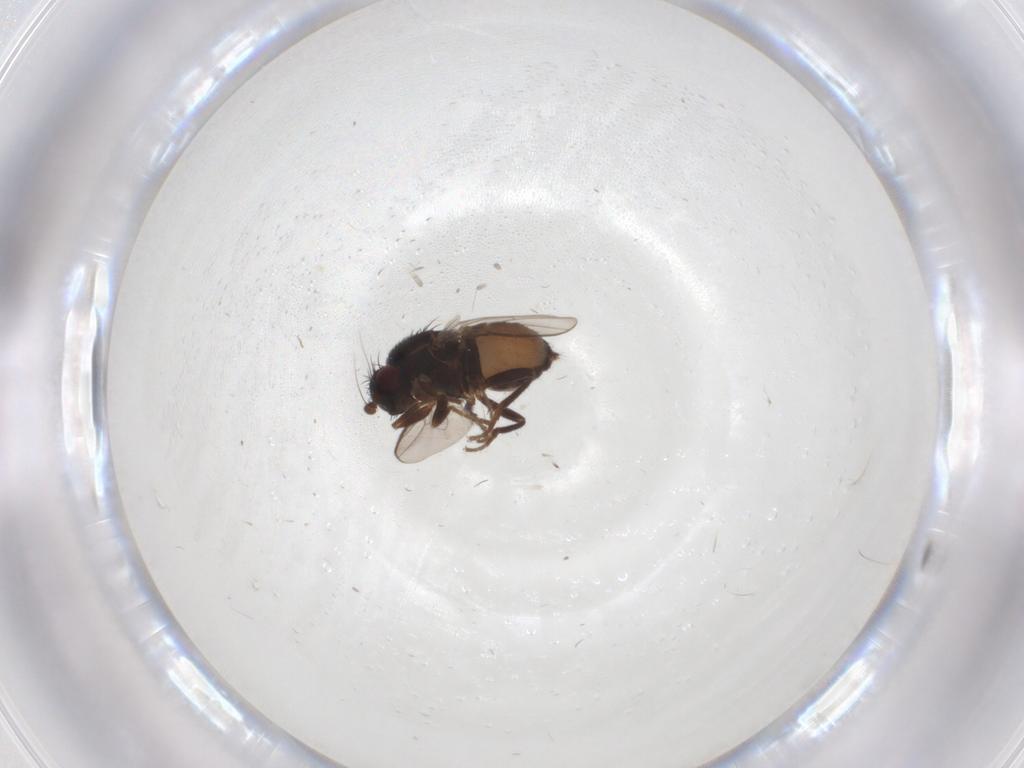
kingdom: Animalia
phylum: Arthropoda
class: Insecta
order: Diptera
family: Sphaeroceridae
